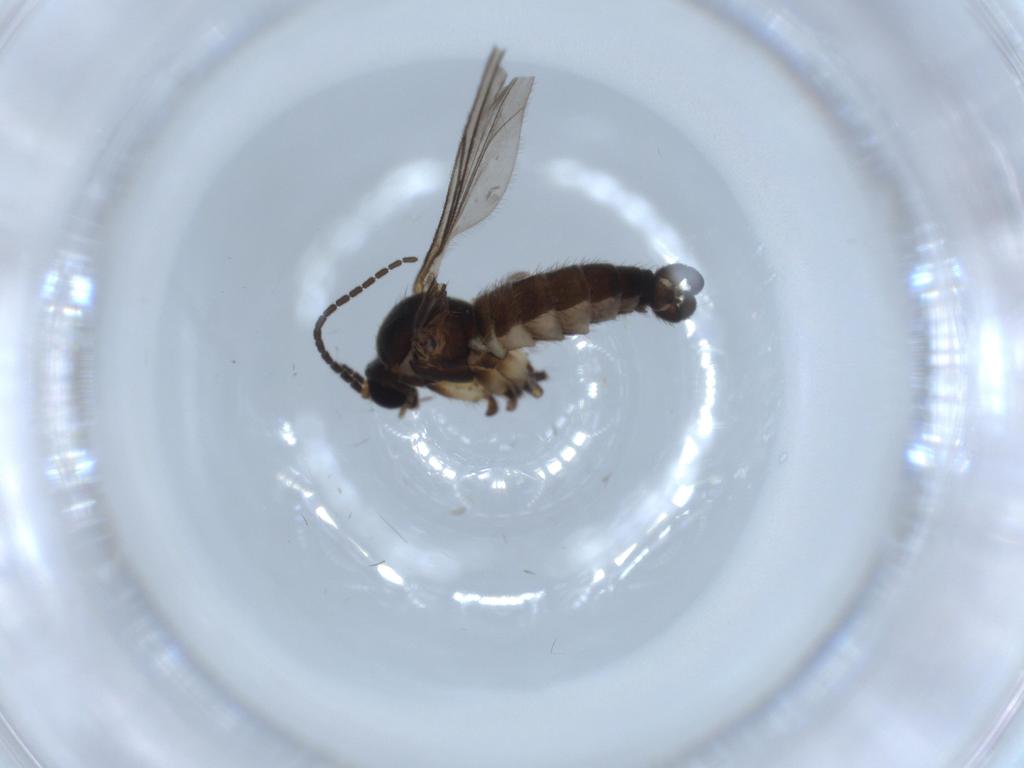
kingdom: Animalia
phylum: Arthropoda
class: Insecta
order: Diptera
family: Sciaridae
